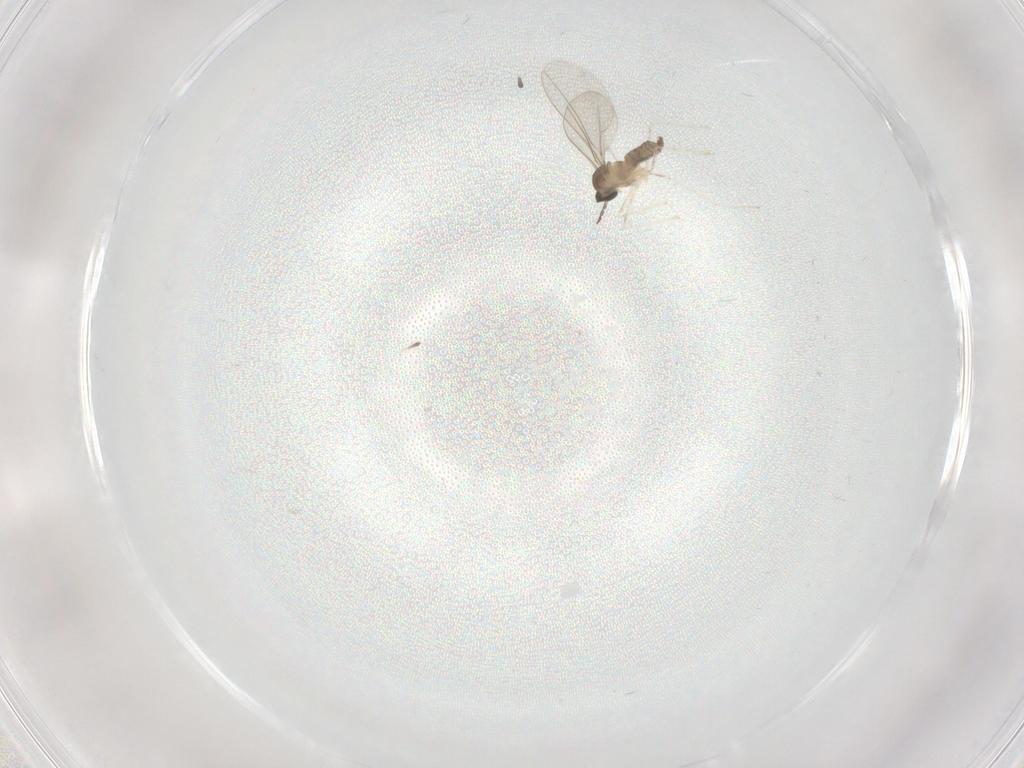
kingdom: Animalia
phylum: Arthropoda
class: Insecta
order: Diptera
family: Cecidomyiidae
